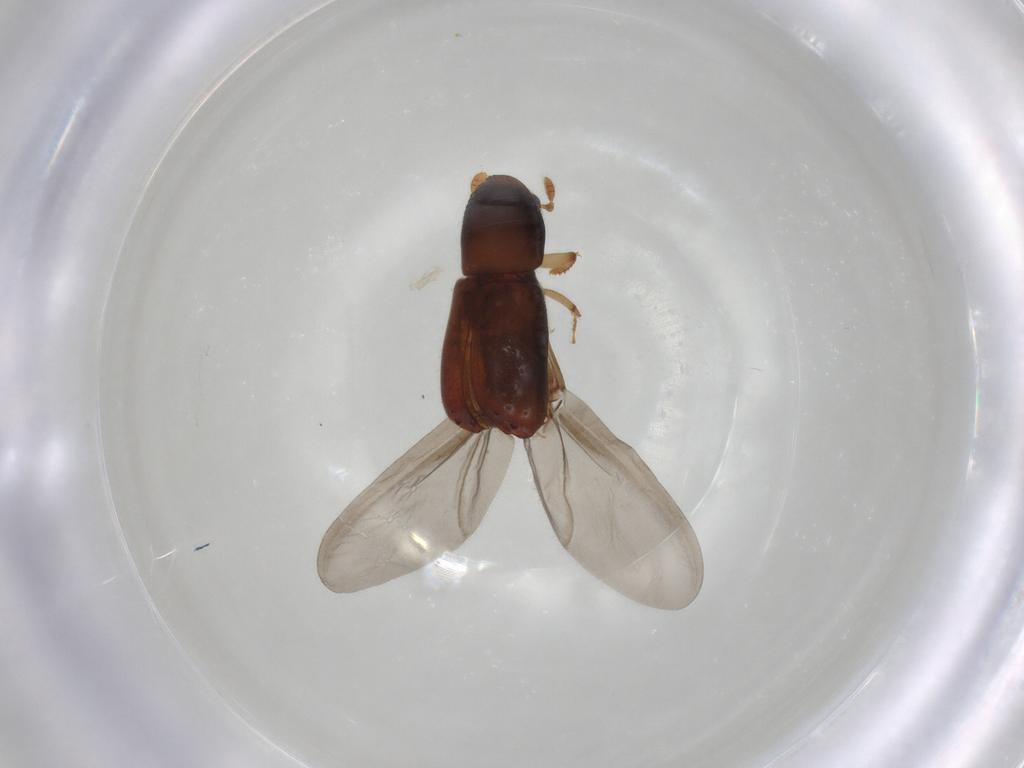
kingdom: Animalia
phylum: Arthropoda
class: Insecta
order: Coleoptera
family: Curculionidae
